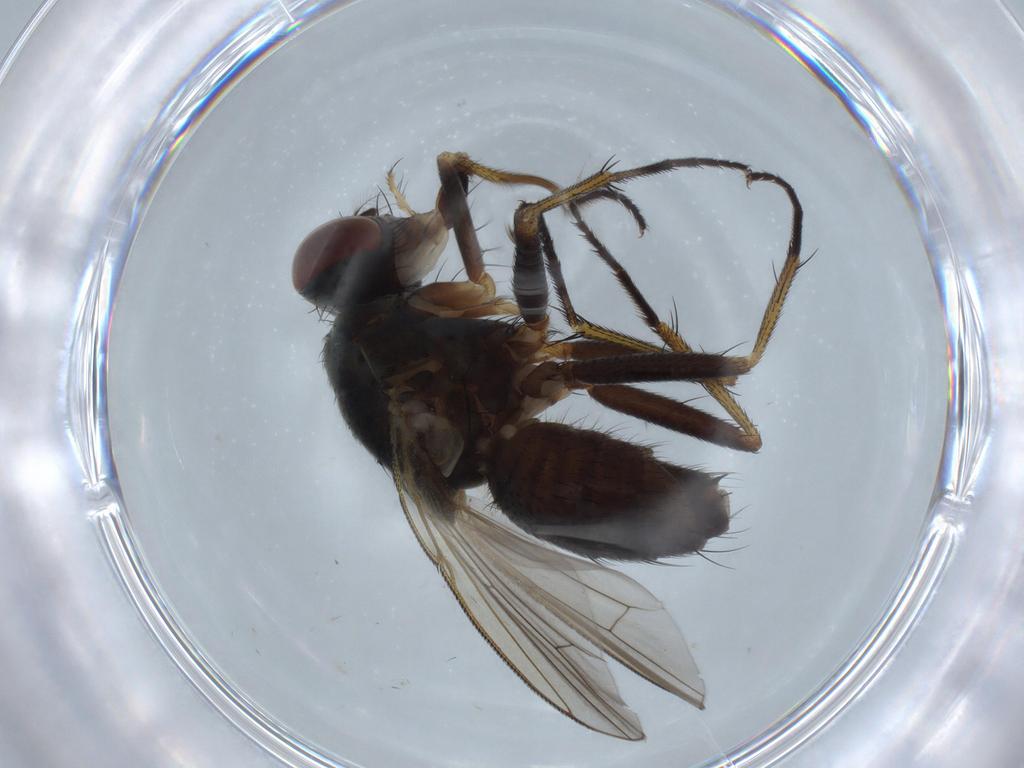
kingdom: Animalia
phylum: Arthropoda
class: Insecta
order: Diptera
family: Muscidae
